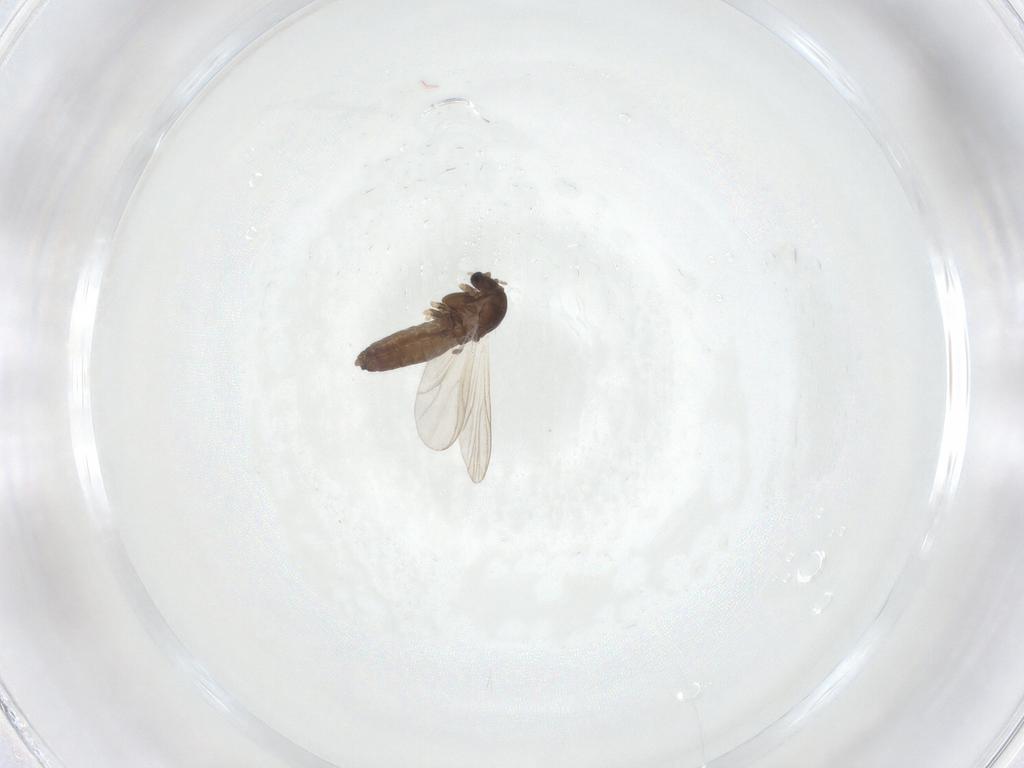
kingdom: Animalia
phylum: Arthropoda
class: Insecta
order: Diptera
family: Chironomidae
